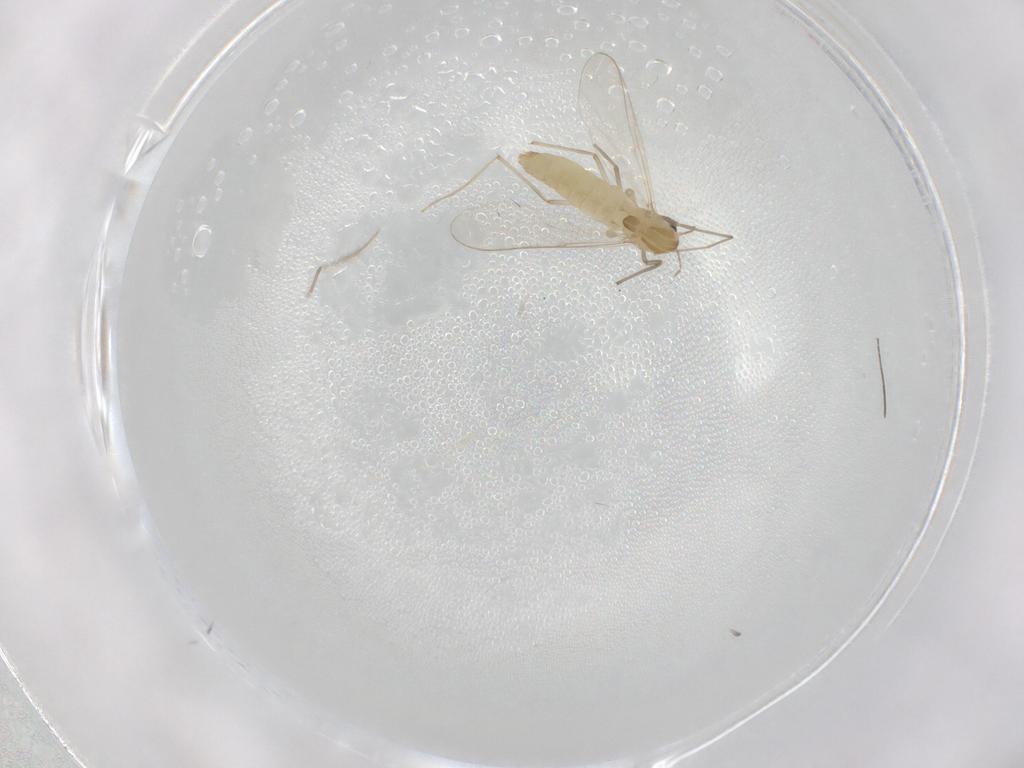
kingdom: Animalia
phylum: Arthropoda
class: Insecta
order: Diptera
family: Chironomidae
